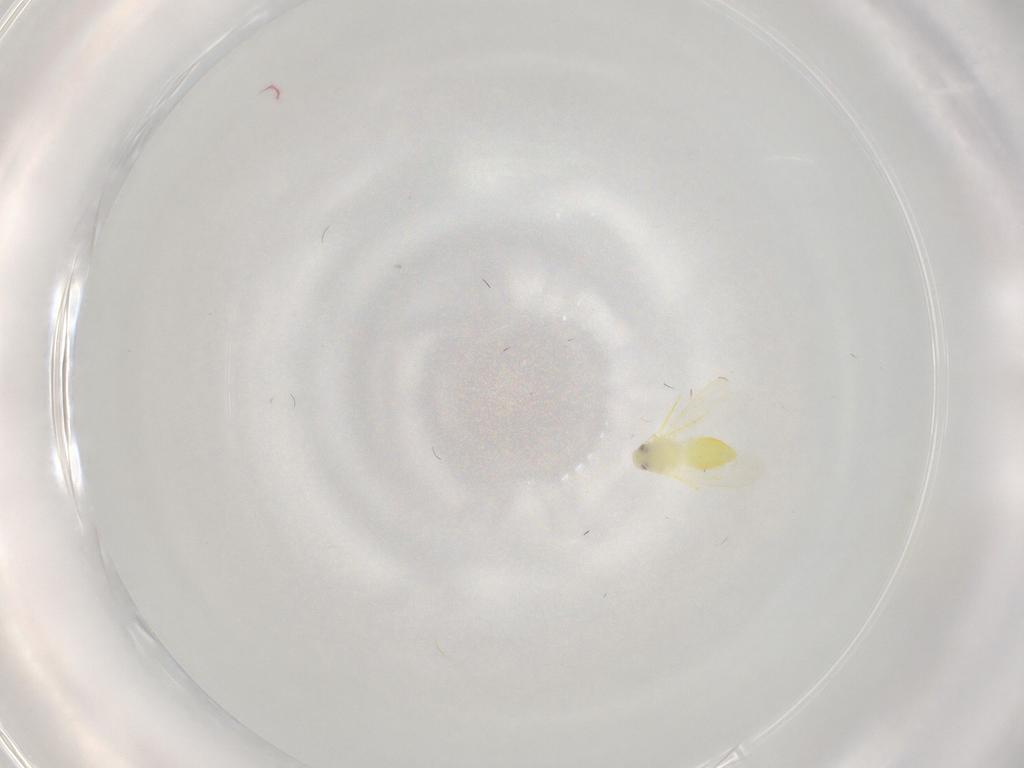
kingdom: Animalia
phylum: Arthropoda
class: Insecta
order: Hemiptera
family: Aleyrodidae
